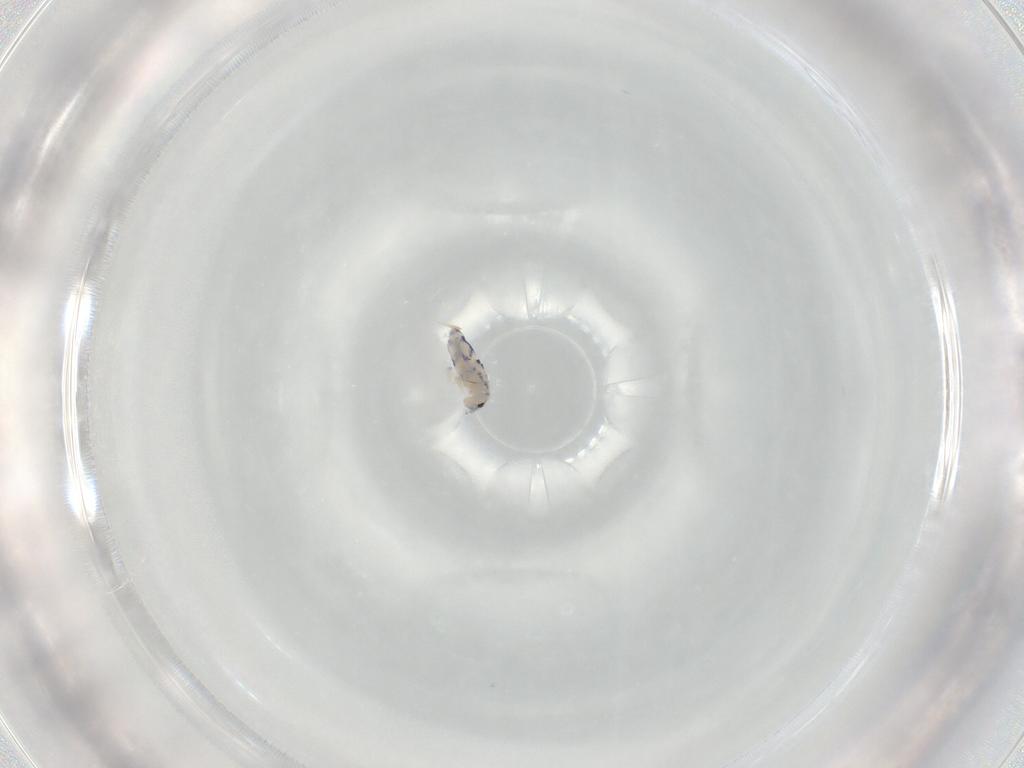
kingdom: Animalia
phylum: Arthropoda
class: Collembola
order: Entomobryomorpha
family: Entomobryidae
